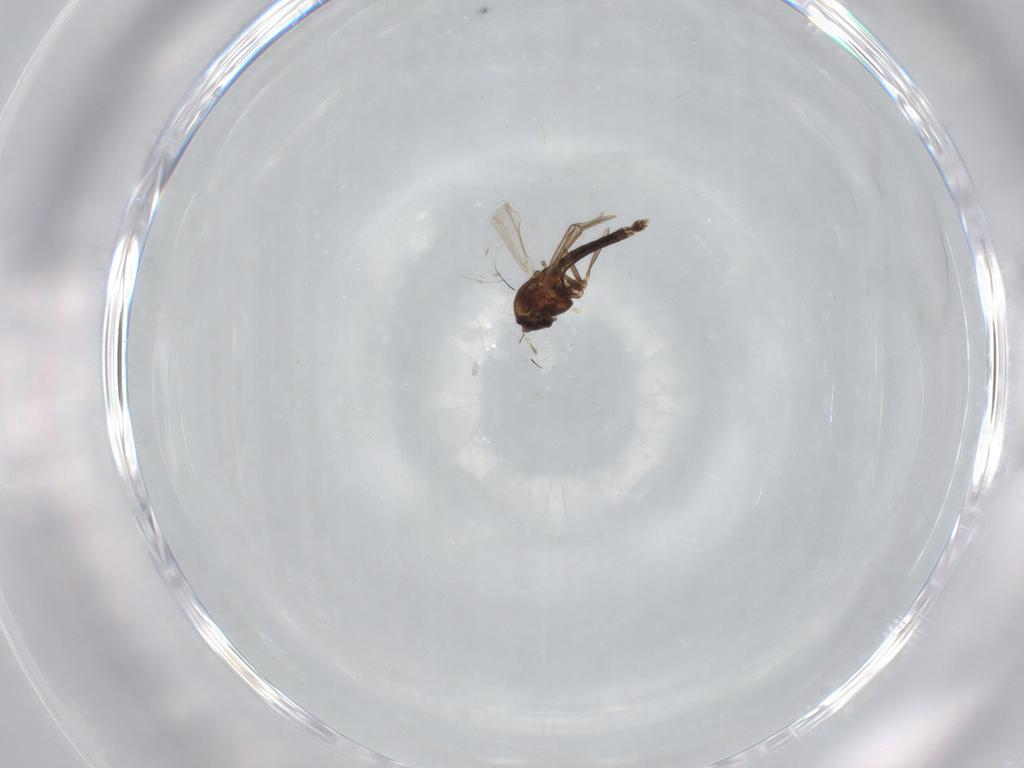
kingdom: Animalia
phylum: Arthropoda
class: Insecta
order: Diptera
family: Chironomidae
